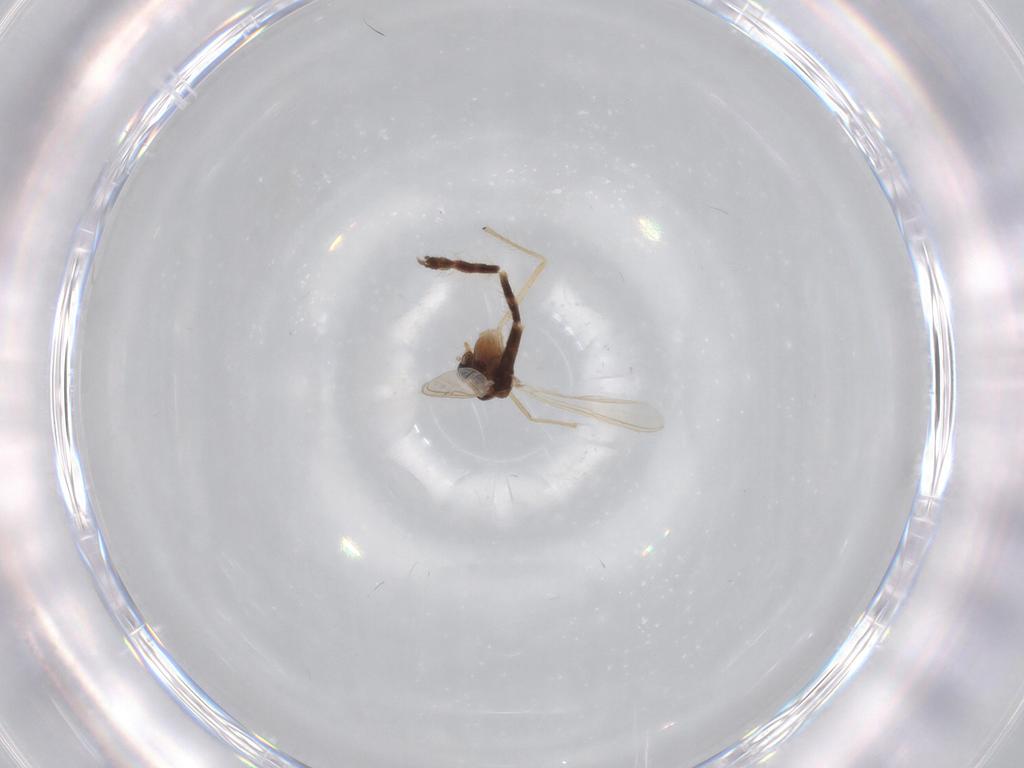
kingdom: Animalia
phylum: Arthropoda
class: Insecta
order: Diptera
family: Chironomidae
